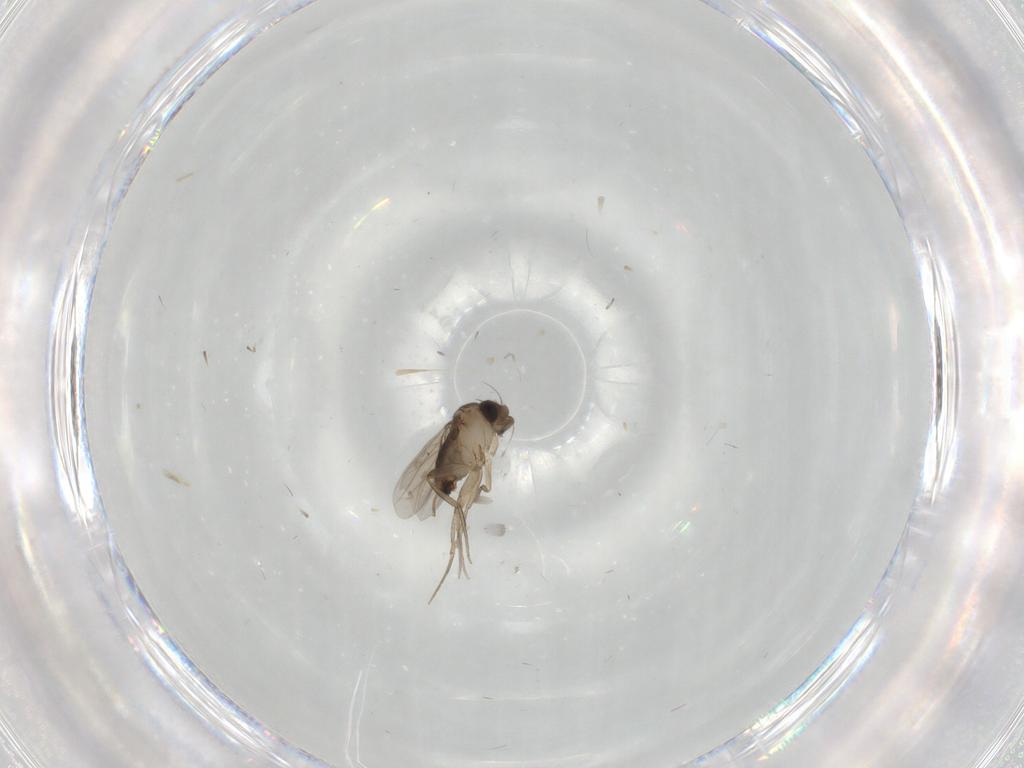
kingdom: Animalia
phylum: Arthropoda
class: Insecta
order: Diptera
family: Phoridae
